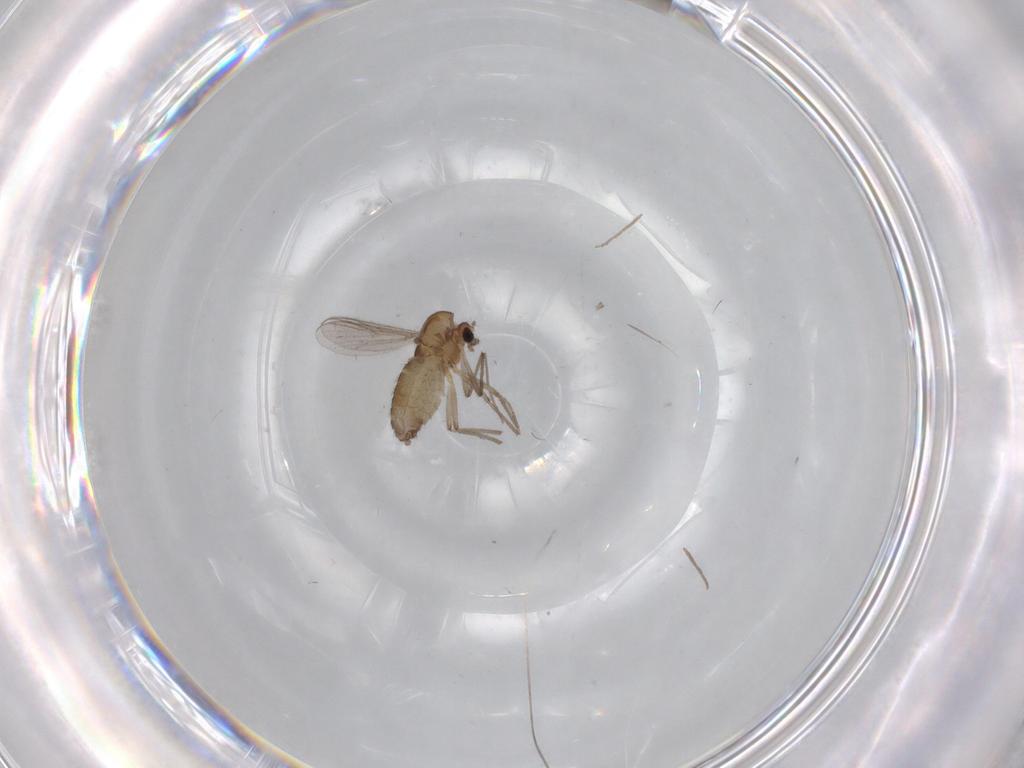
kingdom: Animalia
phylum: Arthropoda
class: Insecta
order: Diptera
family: Chironomidae
